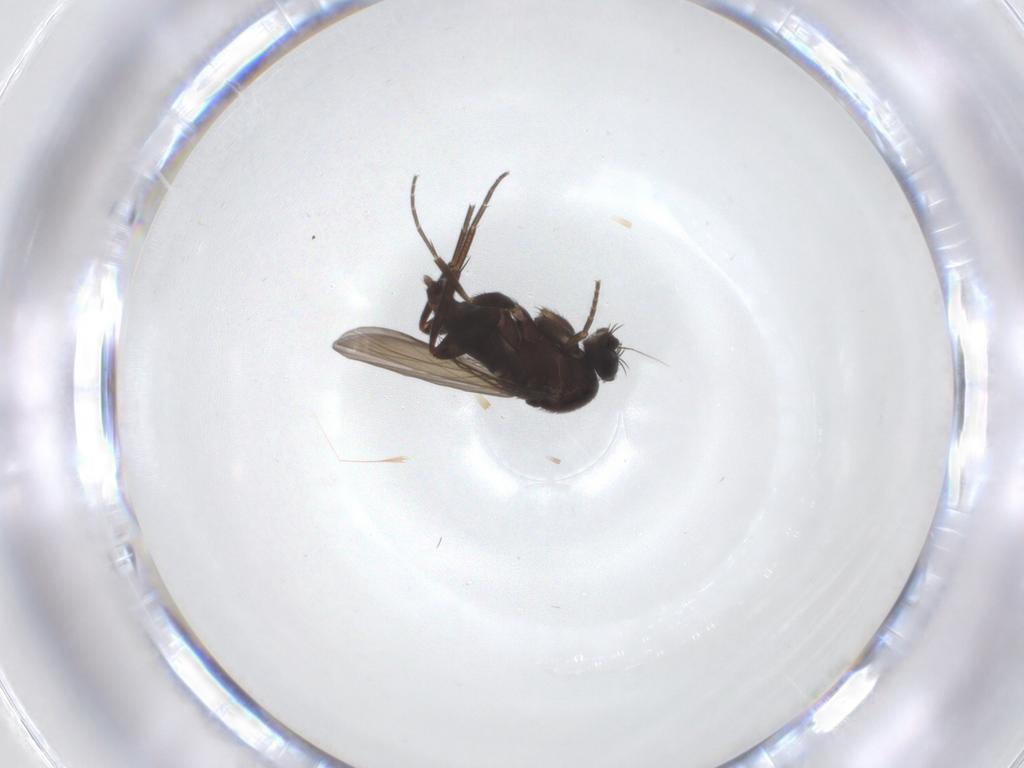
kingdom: Animalia
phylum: Arthropoda
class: Insecta
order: Diptera
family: Phoridae
